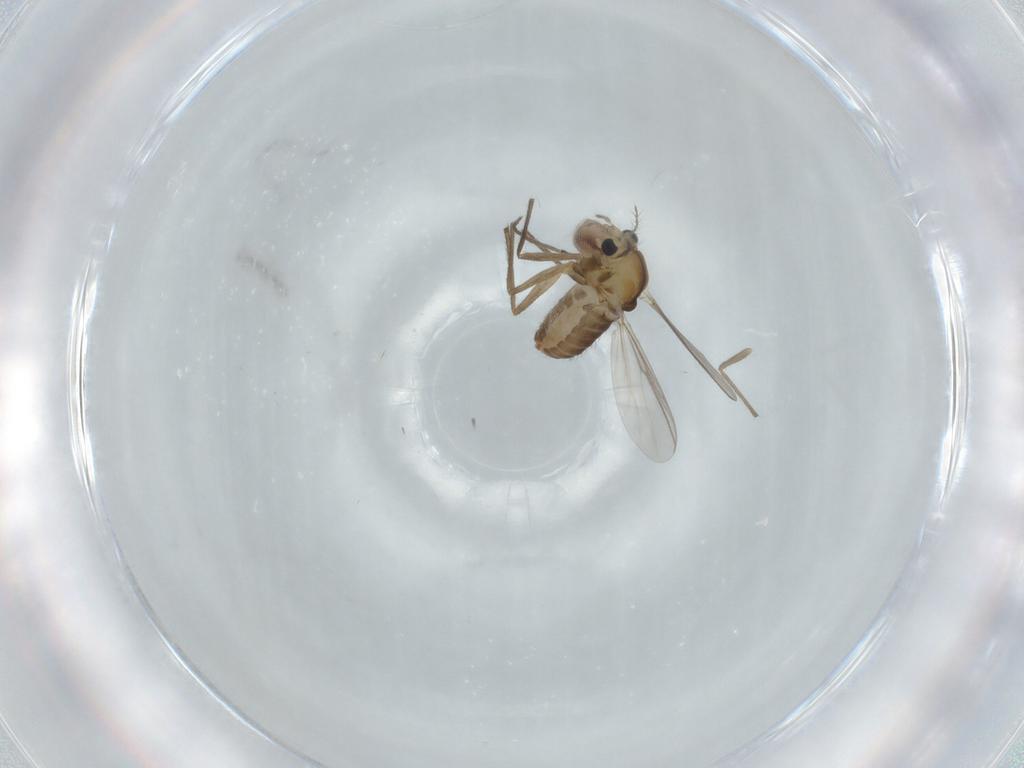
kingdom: Animalia
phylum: Arthropoda
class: Insecta
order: Diptera
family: Chironomidae
